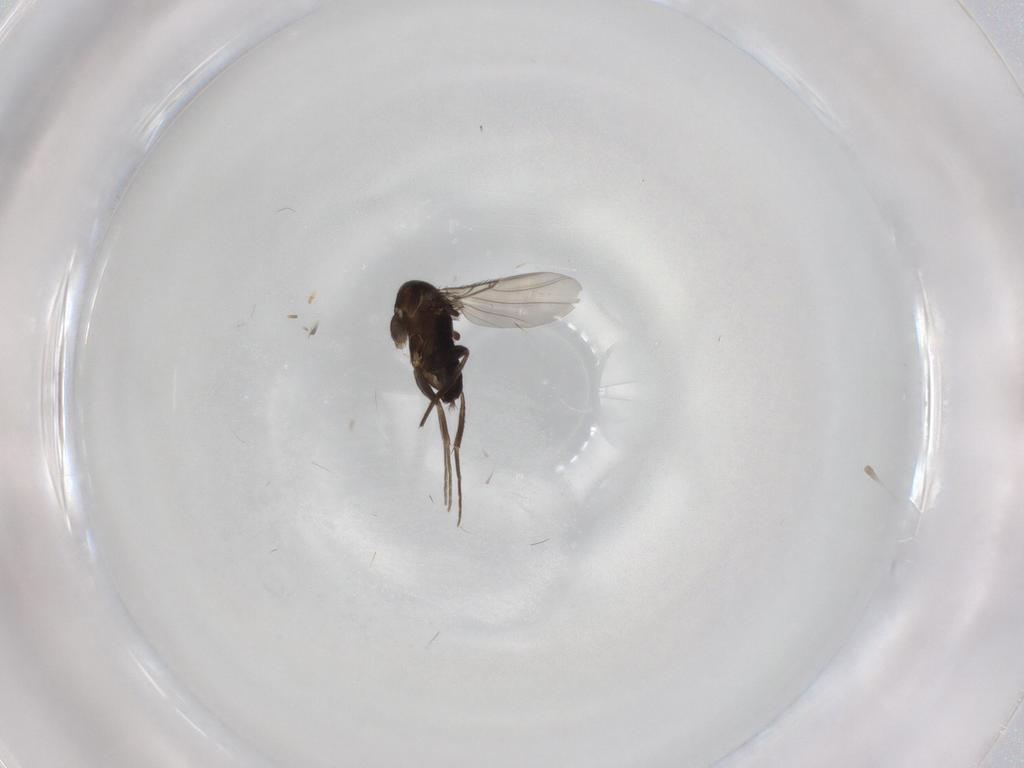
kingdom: Animalia
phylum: Arthropoda
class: Insecta
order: Diptera
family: Phoridae
